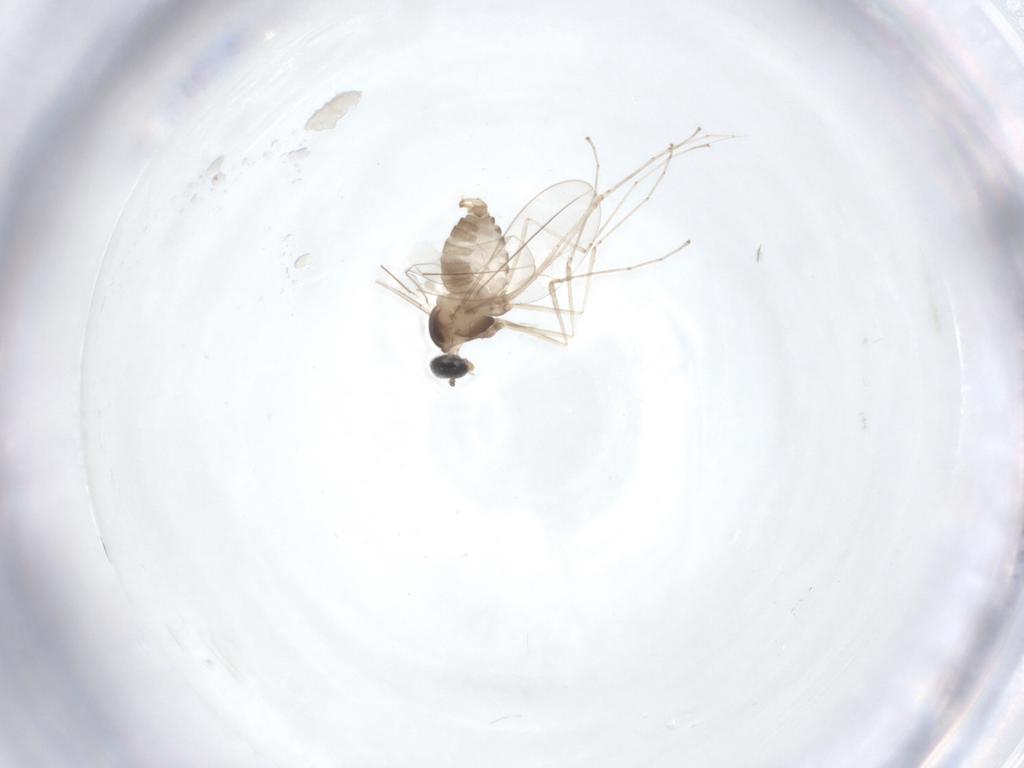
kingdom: Animalia
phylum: Arthropoda
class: Insecta
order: Diptera
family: Cecidomyiidae
